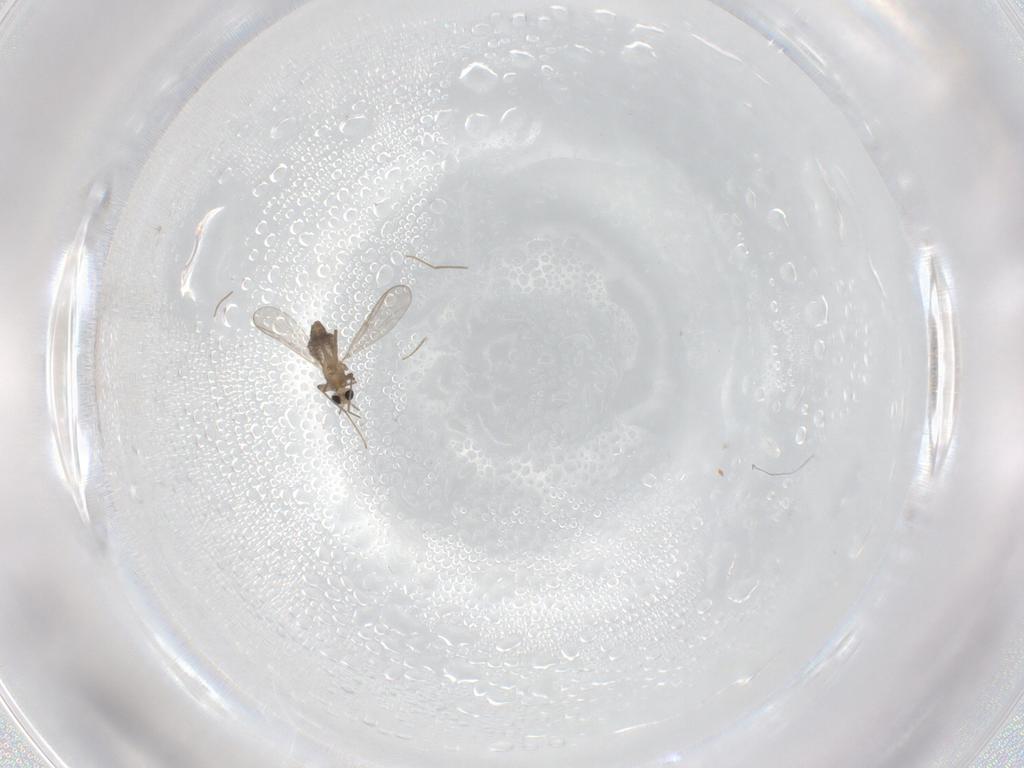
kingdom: Animalia
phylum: Arthropoda
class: Insecta
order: Diptera
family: Chironomidae
